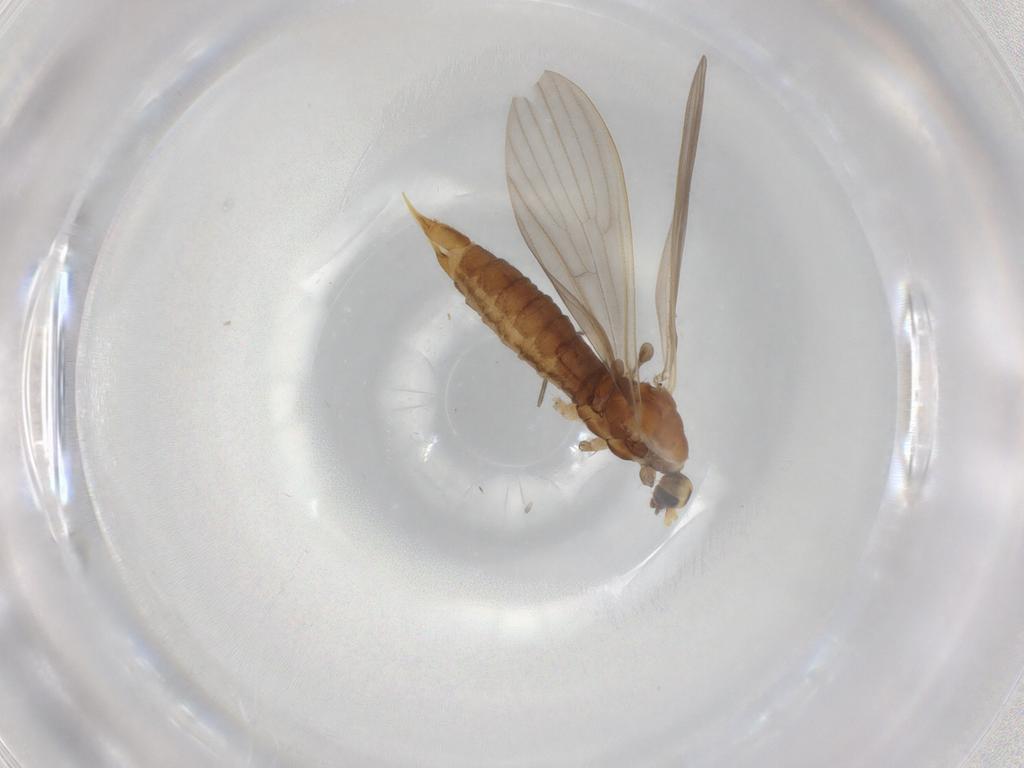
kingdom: Animalia
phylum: Arthropoda
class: Insecta
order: Diptera
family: Limoniidae
